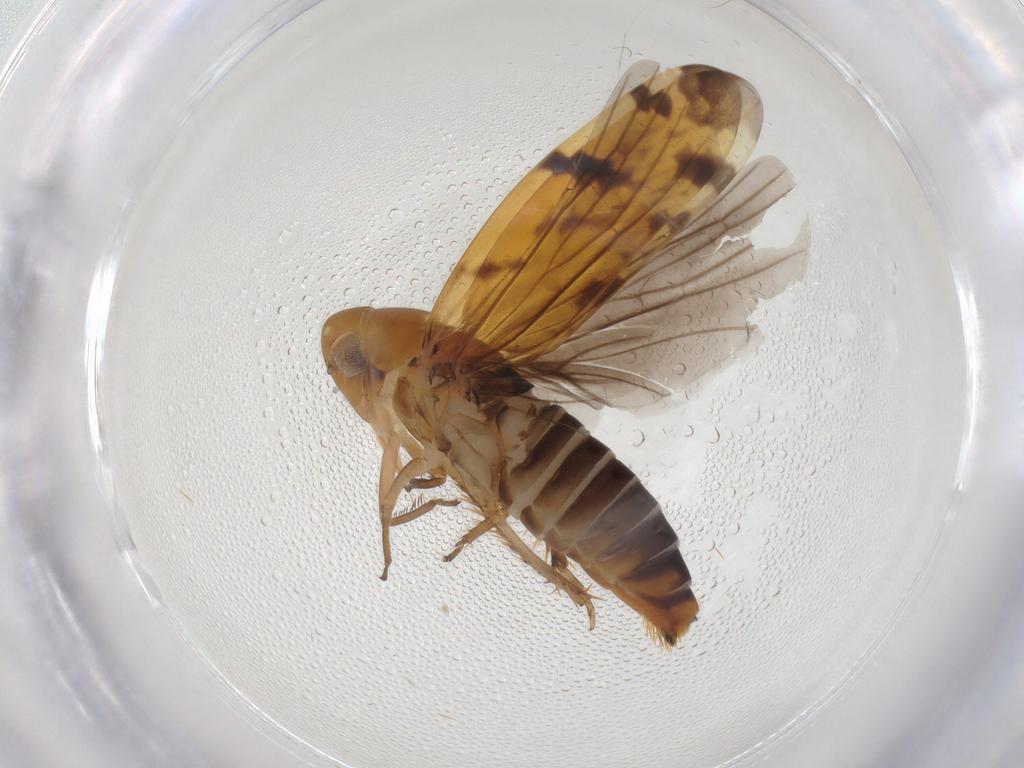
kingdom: Animalia
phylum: Arthropoda
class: Insecta
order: Hemiptera
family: Cicadellidae
